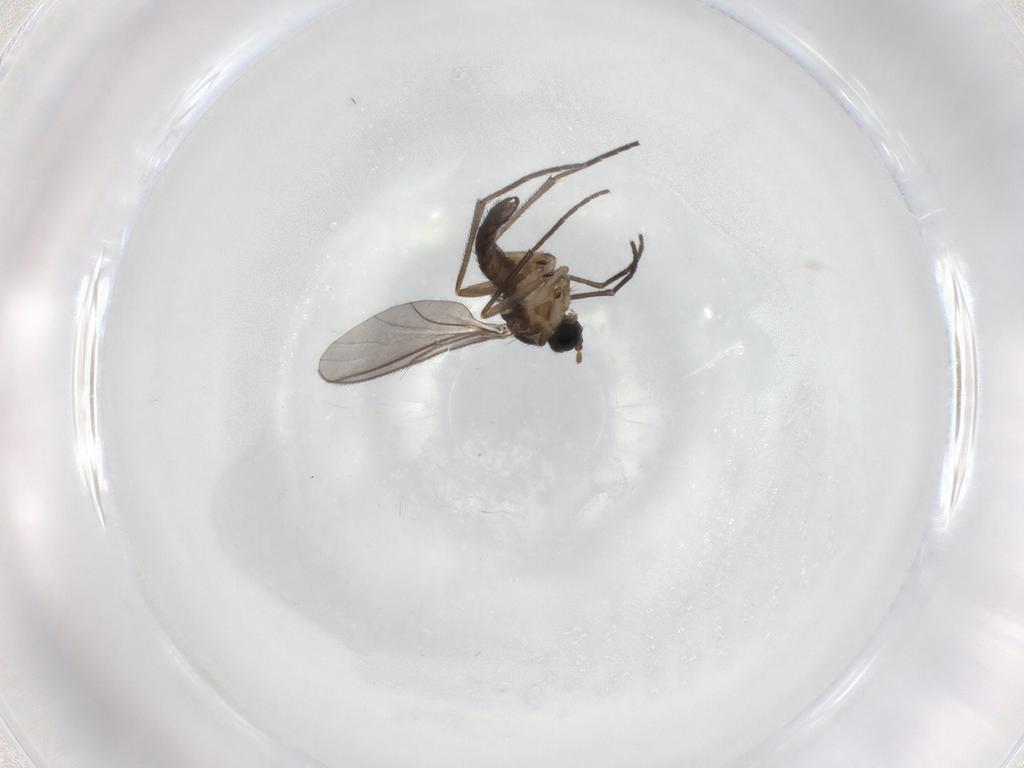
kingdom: Animalia
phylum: Arthropoda
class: Insecta
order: Diptera
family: Sciaridae
